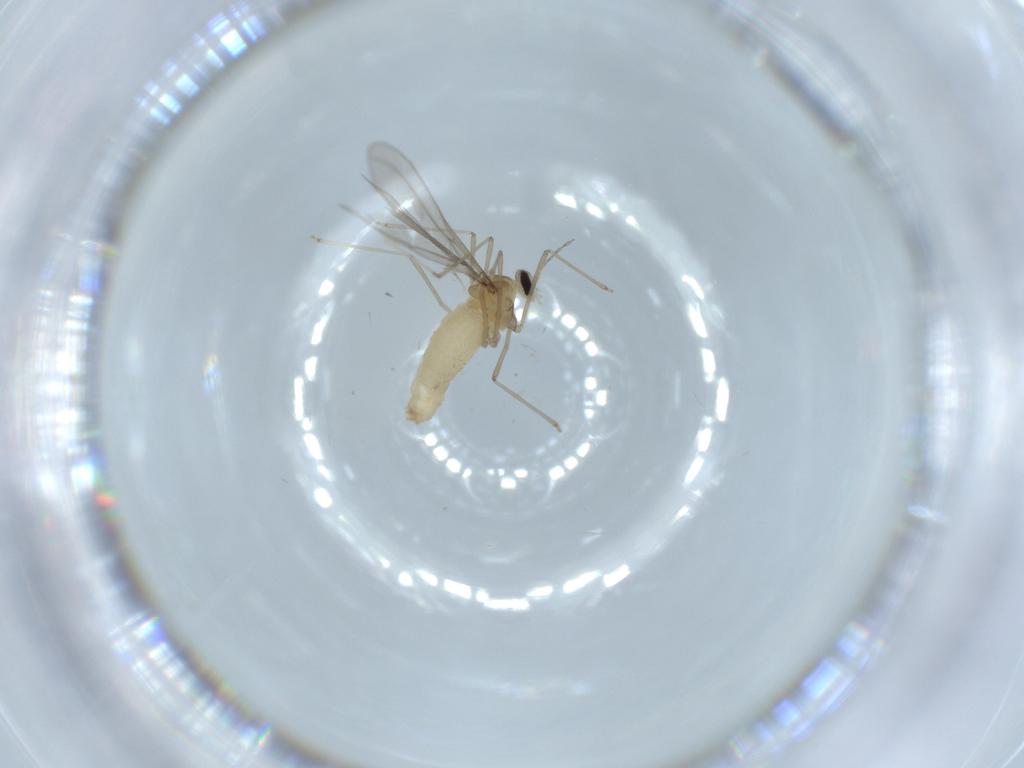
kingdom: Animalia
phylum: Arthropoda
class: Insecta
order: Diptera
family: Cecidomyiidae
